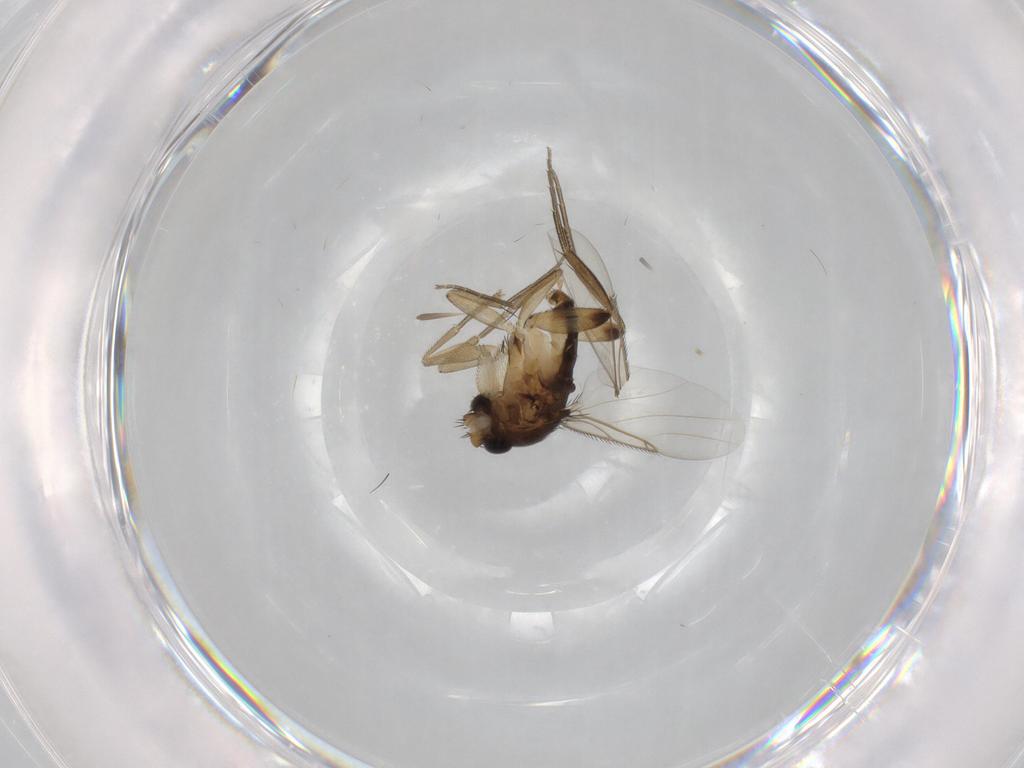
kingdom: Animalia
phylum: Arthropoda
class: Insecta
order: Diptera
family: Phoridae
